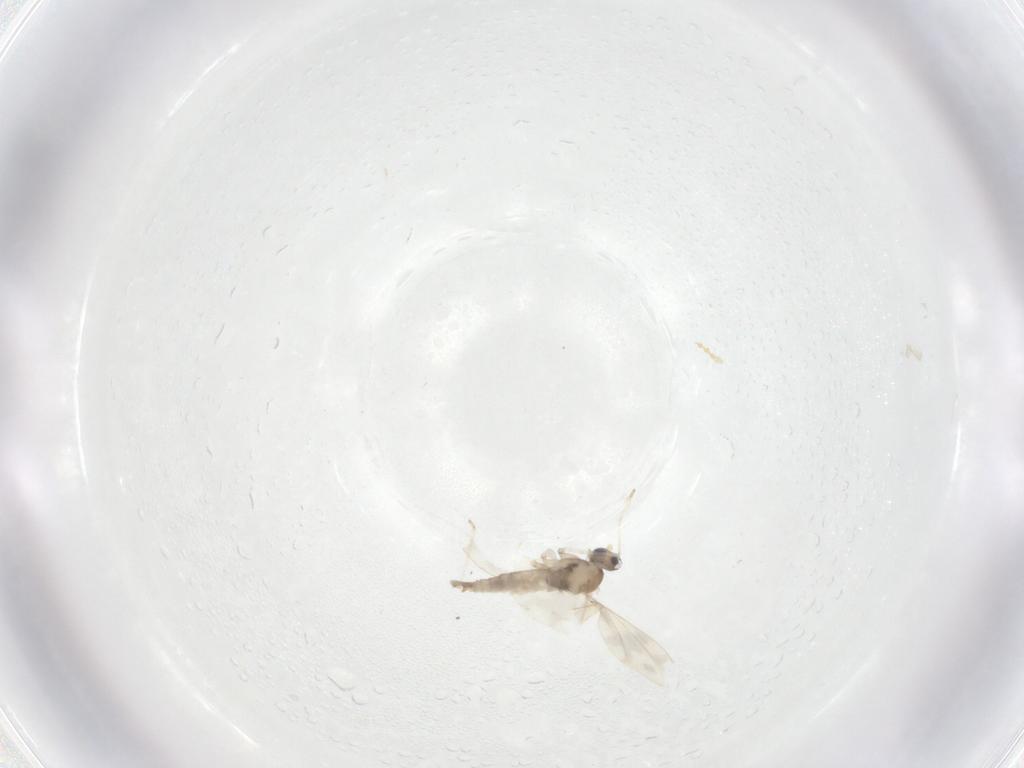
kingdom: Animalia
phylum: Arthropoda
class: Insecta
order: Diptera
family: Cecidomyiidae
